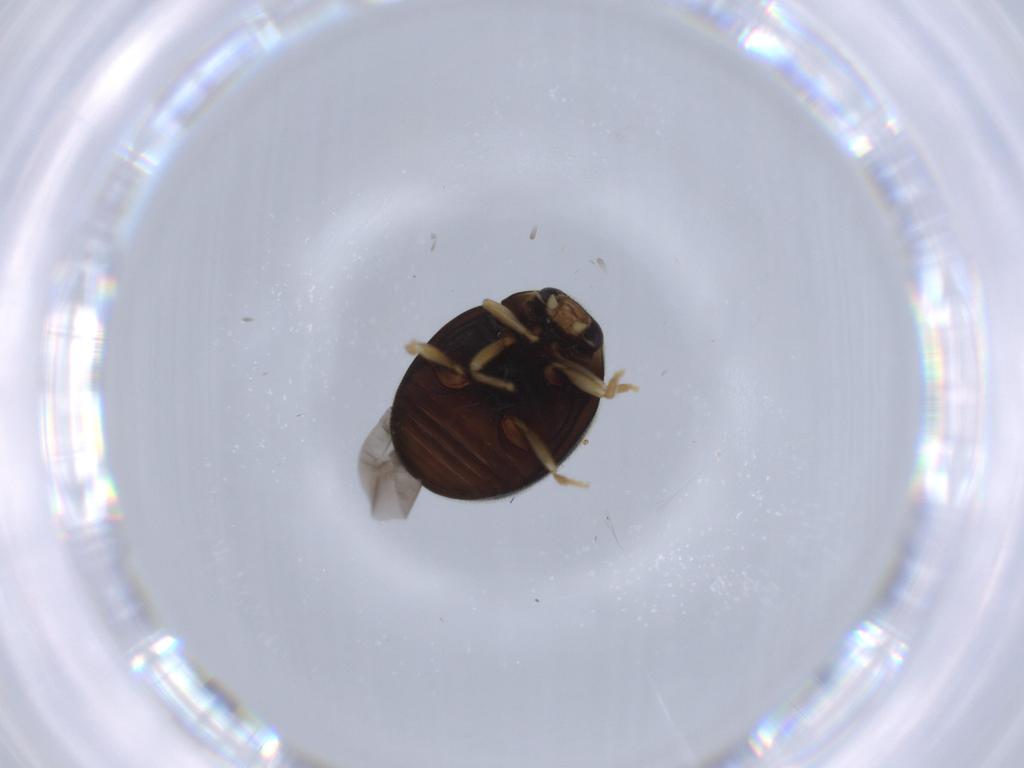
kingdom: Animalia
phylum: Arthropoda
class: Insecta
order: Coleoptera
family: Coccinellidae
